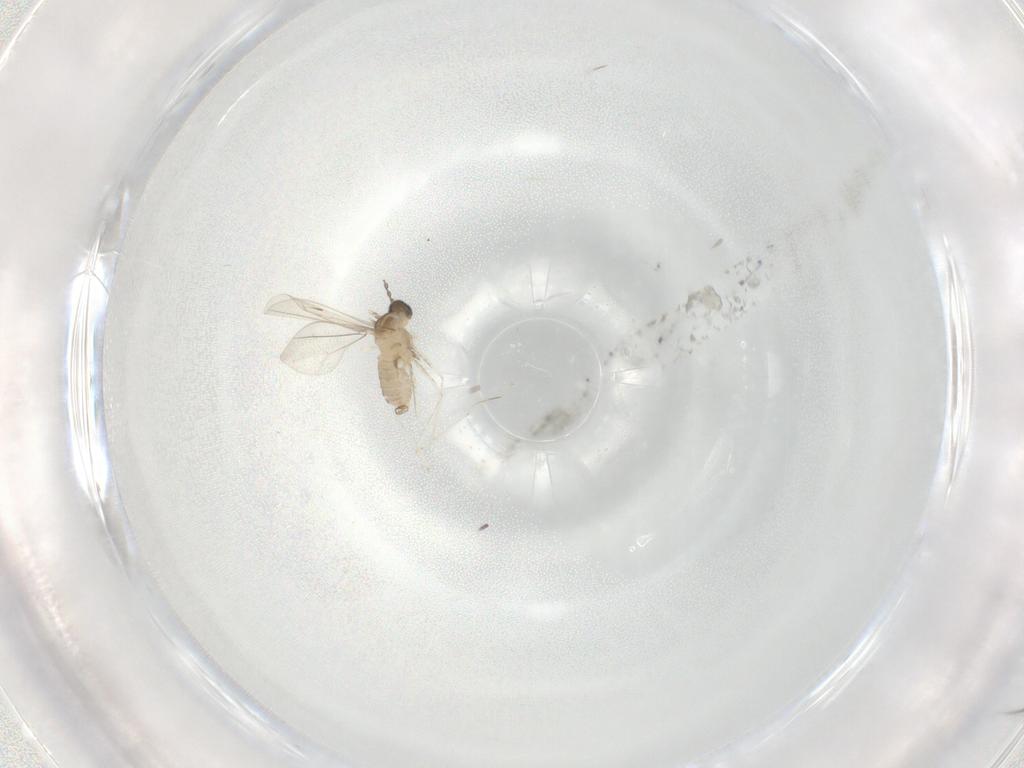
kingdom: Animalia
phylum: Arthropoda
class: Insecta
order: Diptera
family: Cecidomyiidae
